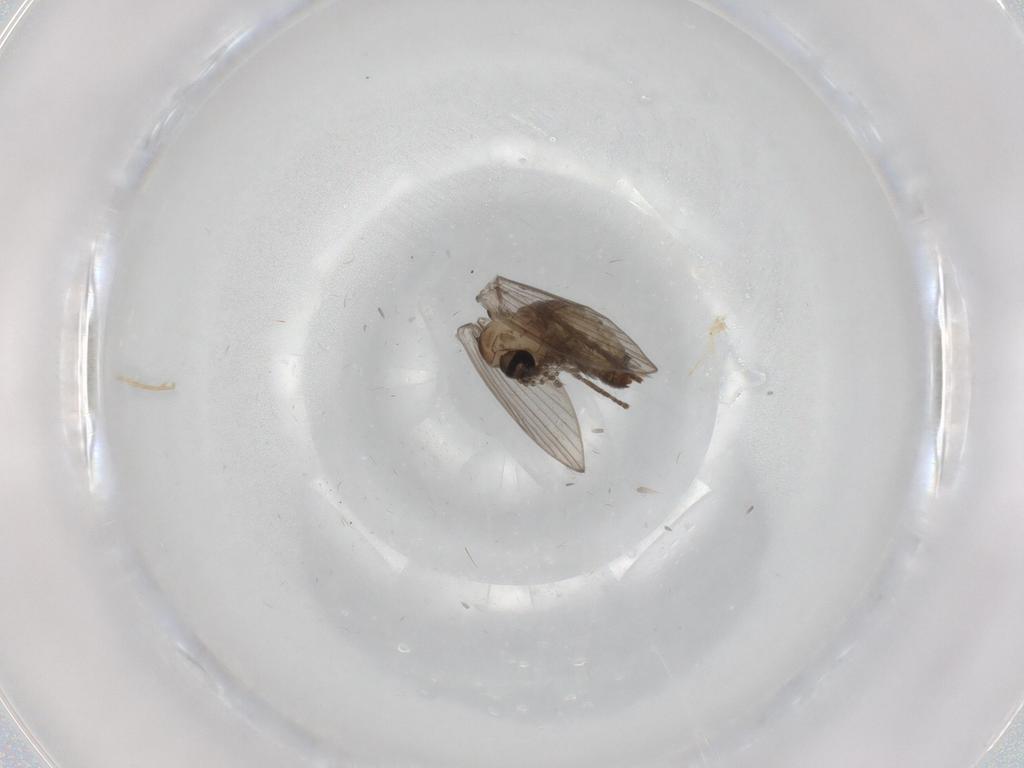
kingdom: Animalia
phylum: Arthropoda
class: Insecta
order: Diptera
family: Psychodidae
